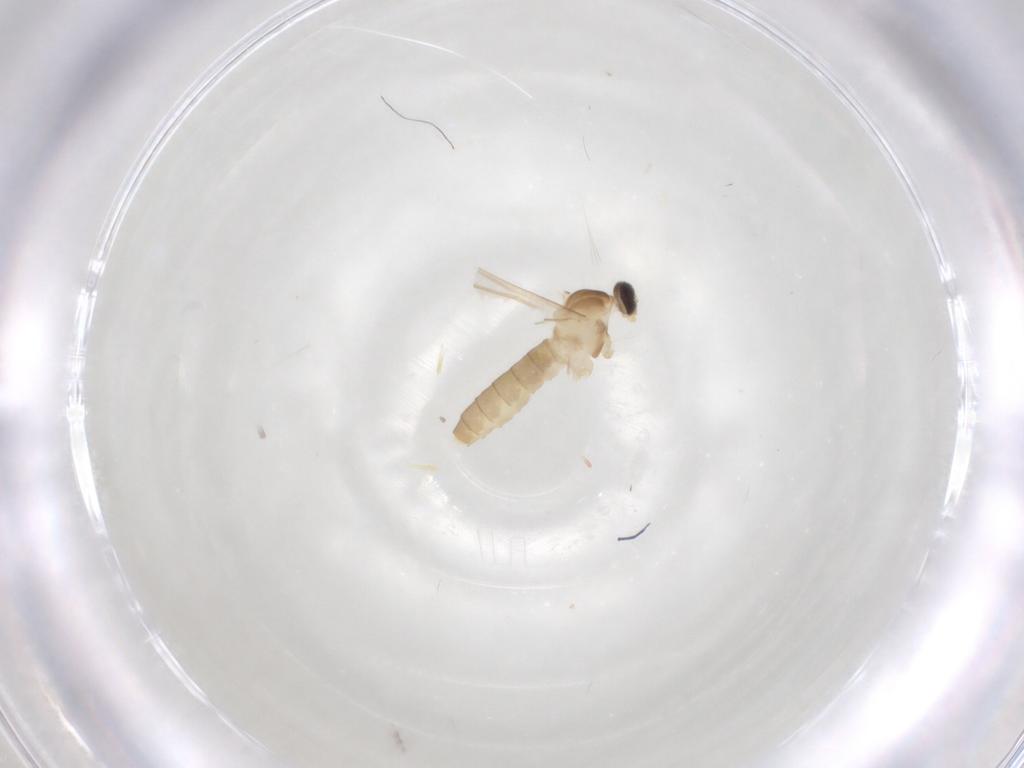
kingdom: Animalia
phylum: Arthropoda
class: Insecta
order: Diptera
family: Cecidomyiidae
